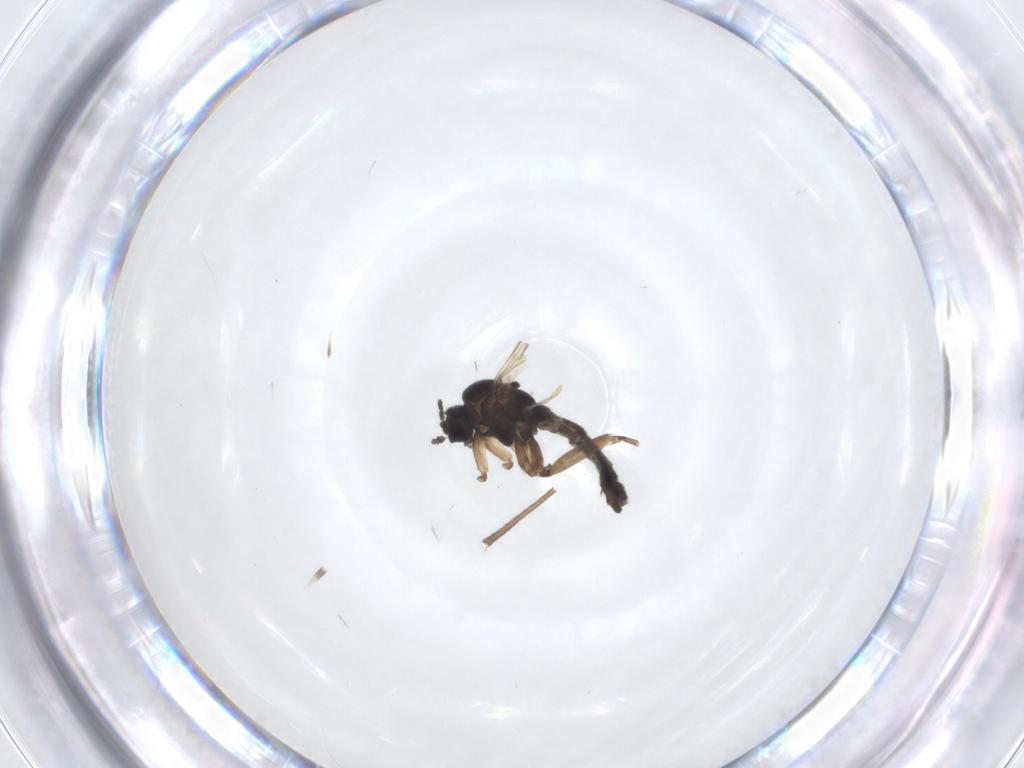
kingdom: Animalia
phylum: Arthropoda
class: Insecta
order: Diptera
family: Sciaridae
